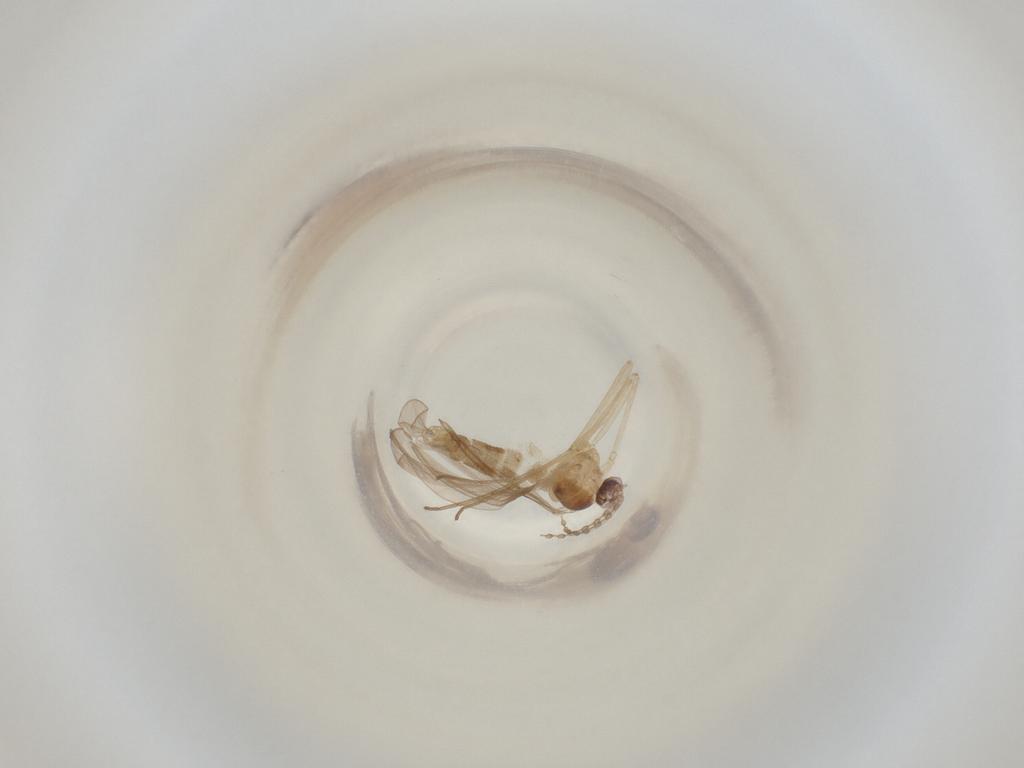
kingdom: Animalia
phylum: Arthropoda
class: Insecta
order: Diptera
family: Cecidomyiidae
